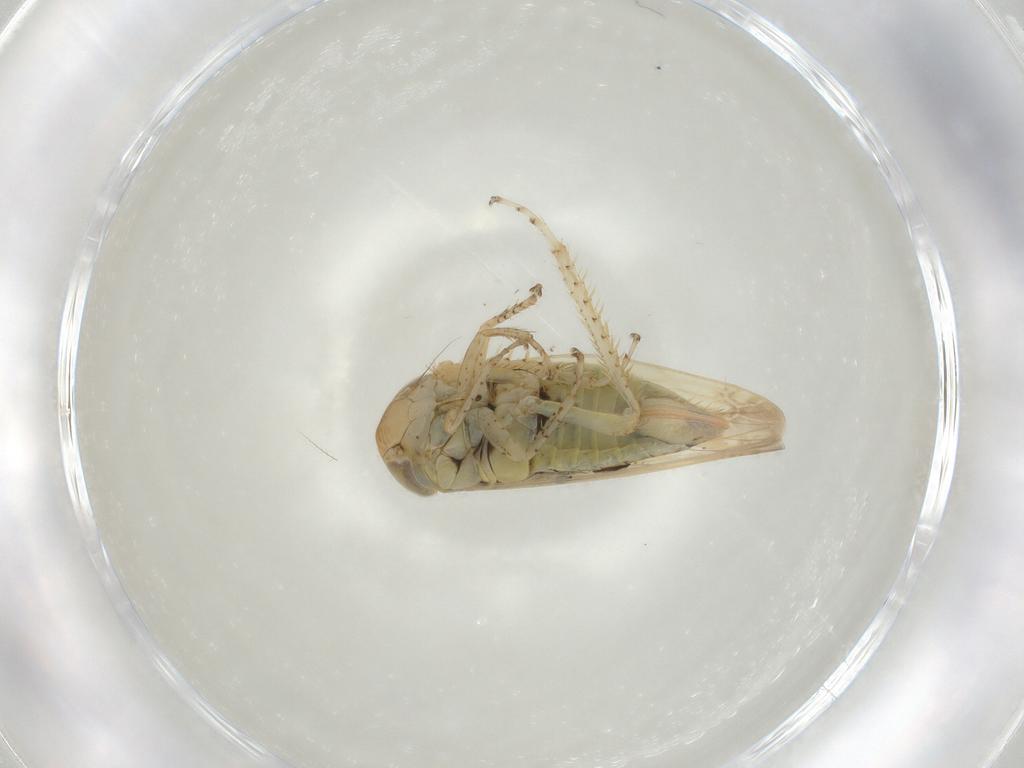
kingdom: Animalia
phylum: Arthropoda
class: Insecta
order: Hemiptera
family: Cicadellidae
